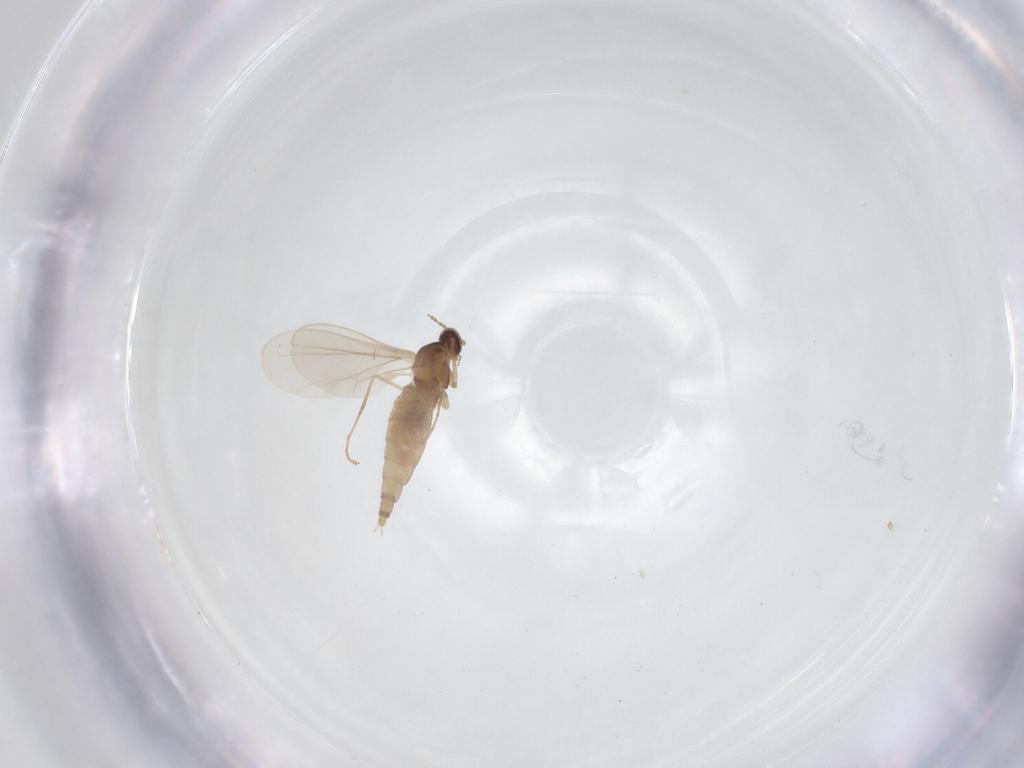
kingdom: Animalia
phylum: Arthropoda
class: Insecta
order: Diptera
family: Cecidomyiidae
